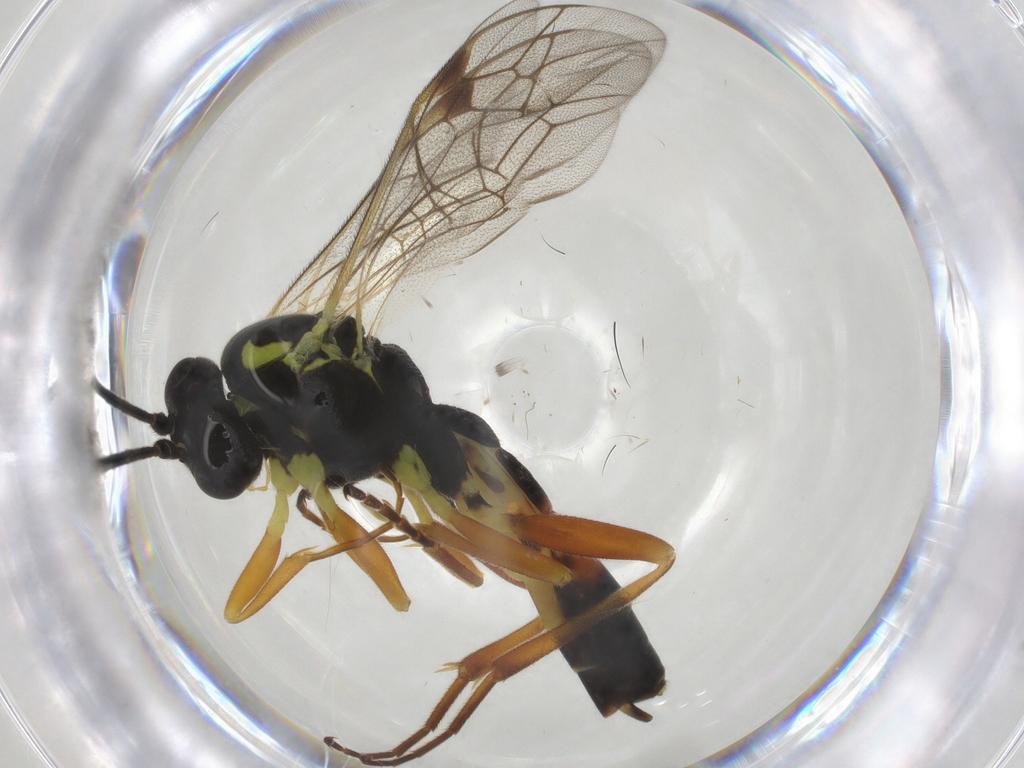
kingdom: Animalia
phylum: Arthropoda
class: Insecta
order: Hymenoptera
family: Ichneumonidae
